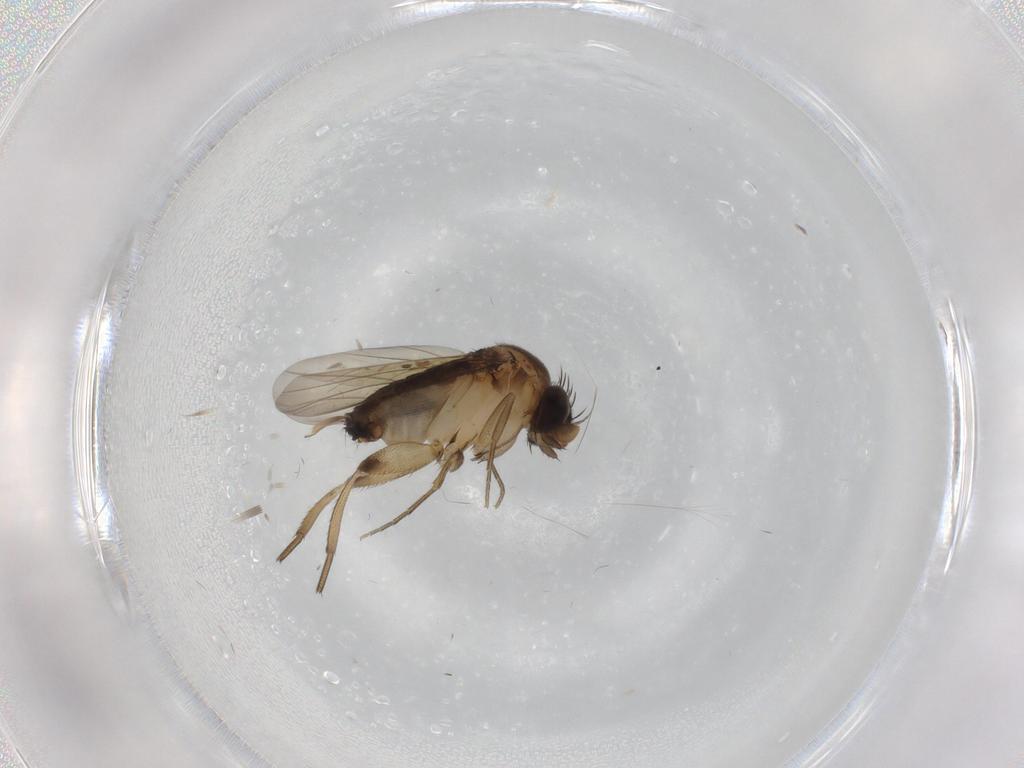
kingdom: Animalia
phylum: Arthropoda
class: Insecta
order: Diptera
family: Phoridae
